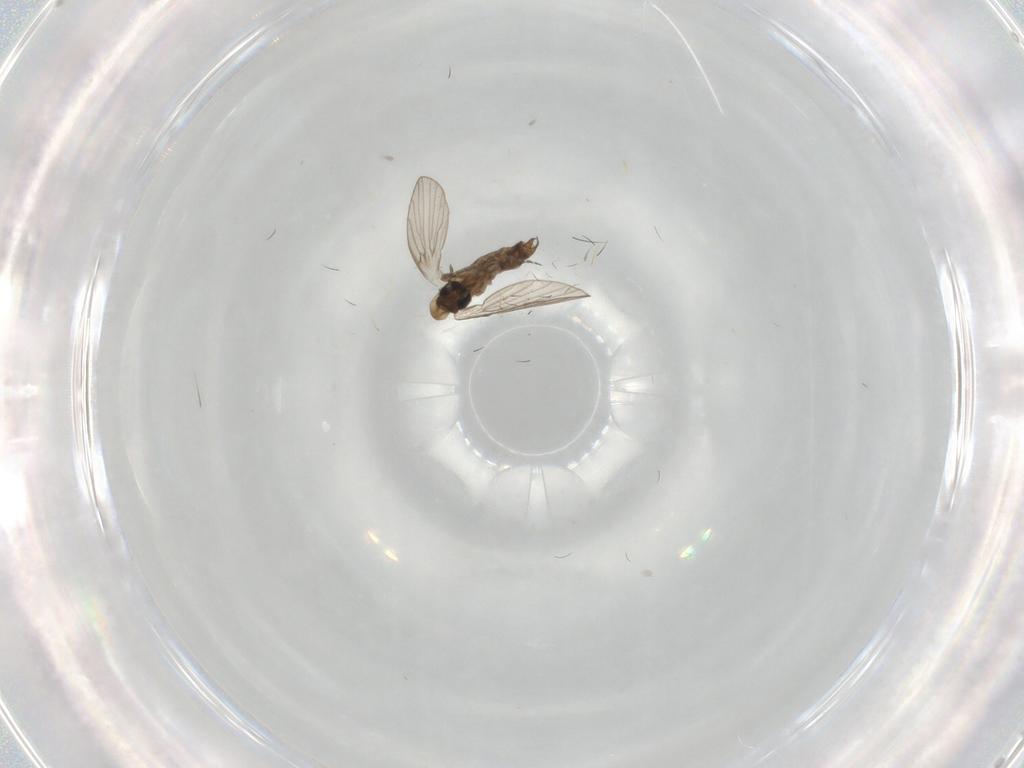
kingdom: Animalia
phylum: Arthropoda
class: Insecta
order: Diptera
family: Psychodidae
